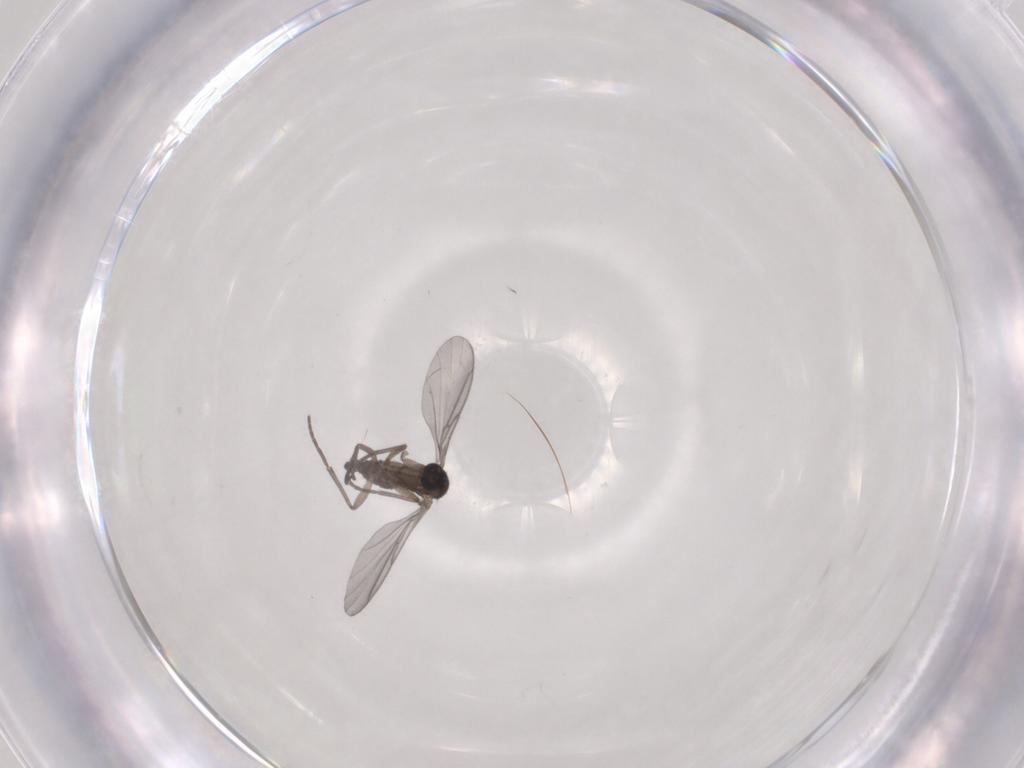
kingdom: Animalia
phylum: Arthropoda
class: Insecta
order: Diptera
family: Sciaridae
